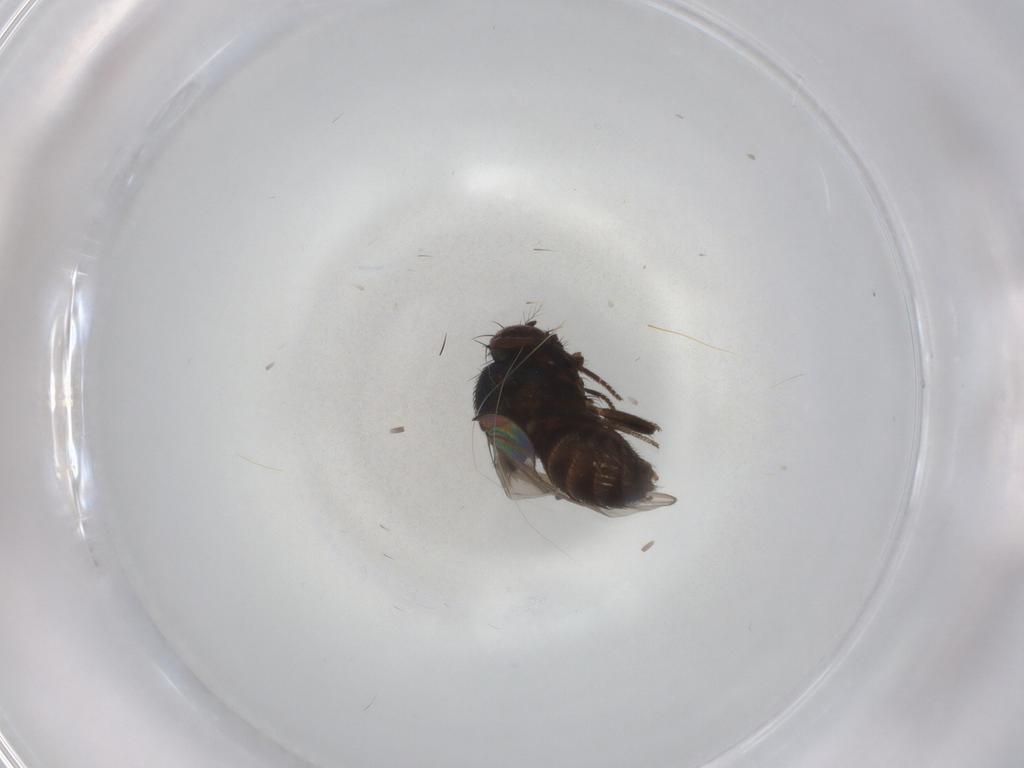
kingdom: Animalia
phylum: Arthropoda
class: Insecta
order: Diptera
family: Drosophilidae
